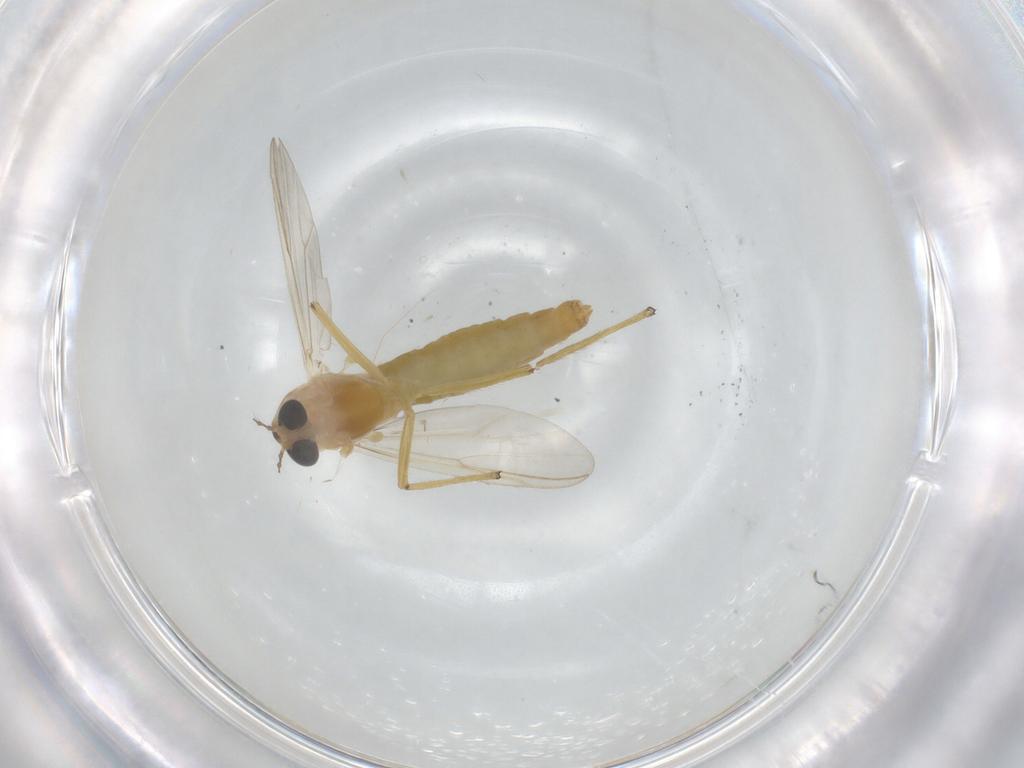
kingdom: Animalia
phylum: Arthropoda
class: Insecta
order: Diptera
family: Chironomidae
